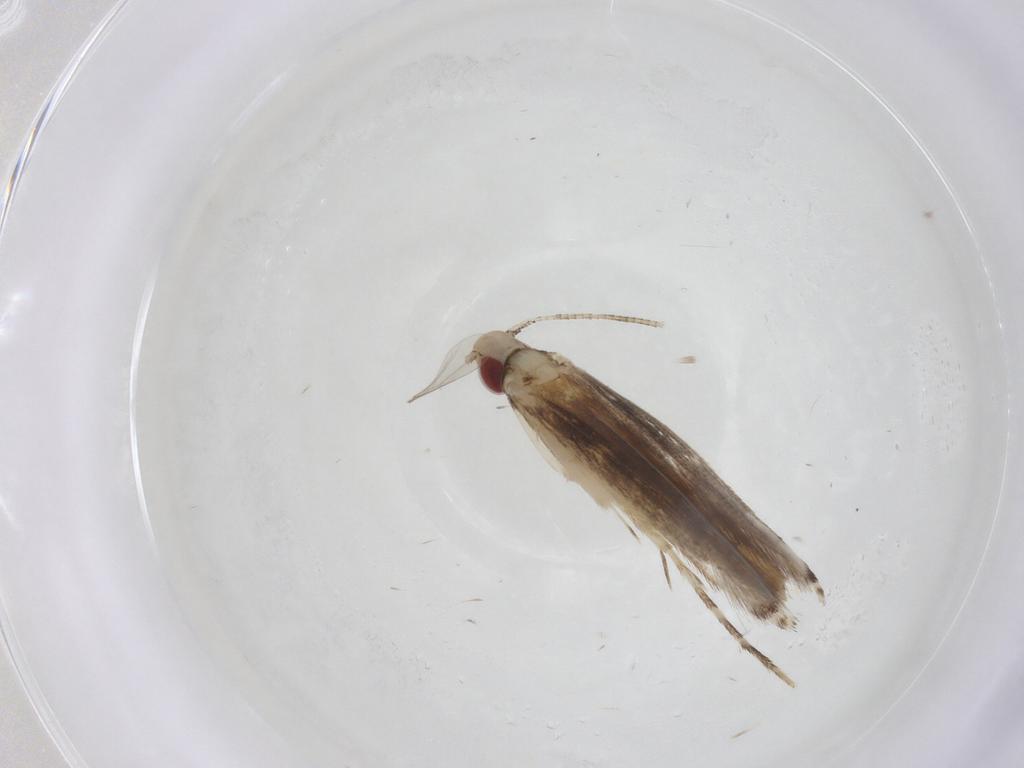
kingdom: Animalia
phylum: Arthropoda
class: Insecta
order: Lepidoptera
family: Gracillariidae
